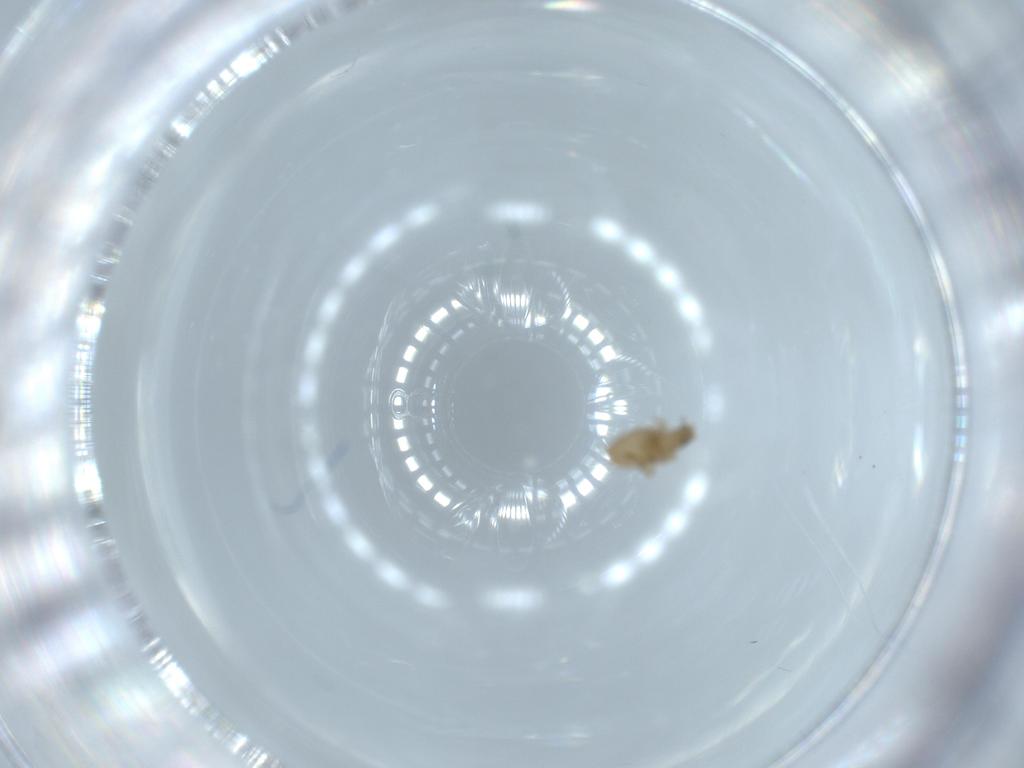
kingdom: Animalia
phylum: Arthropoda
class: Insecta
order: Diptera
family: Phoridae
